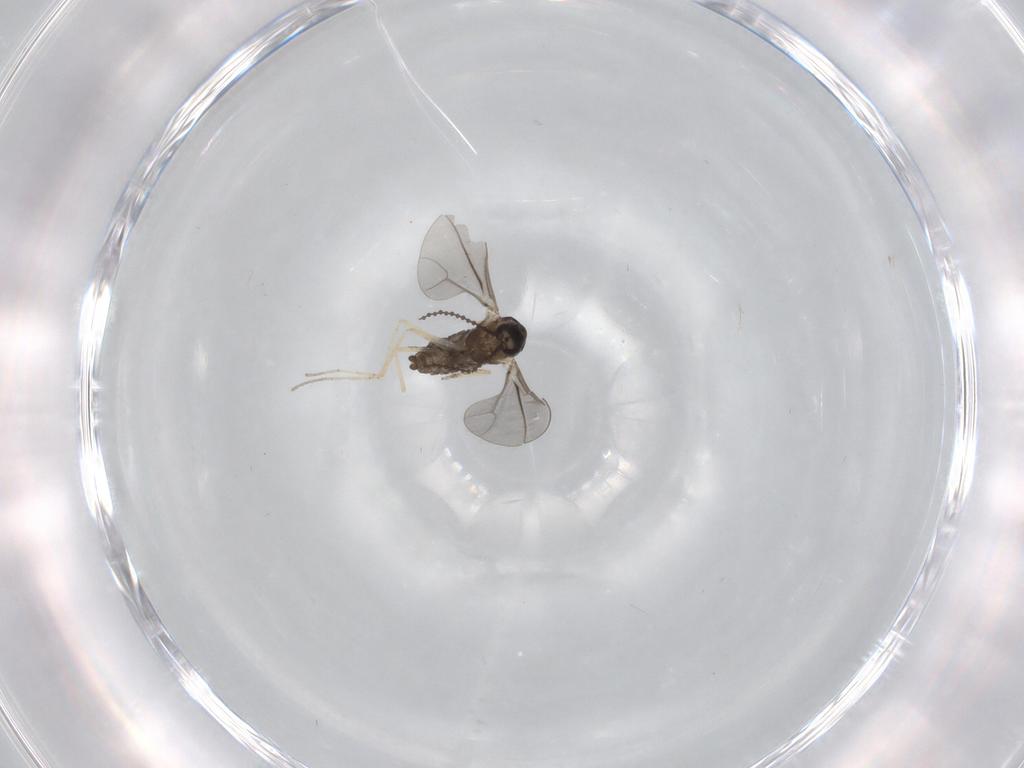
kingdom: Animalia
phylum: Arthropoda
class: Insecta
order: Diptera
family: Cecidomyiidae
